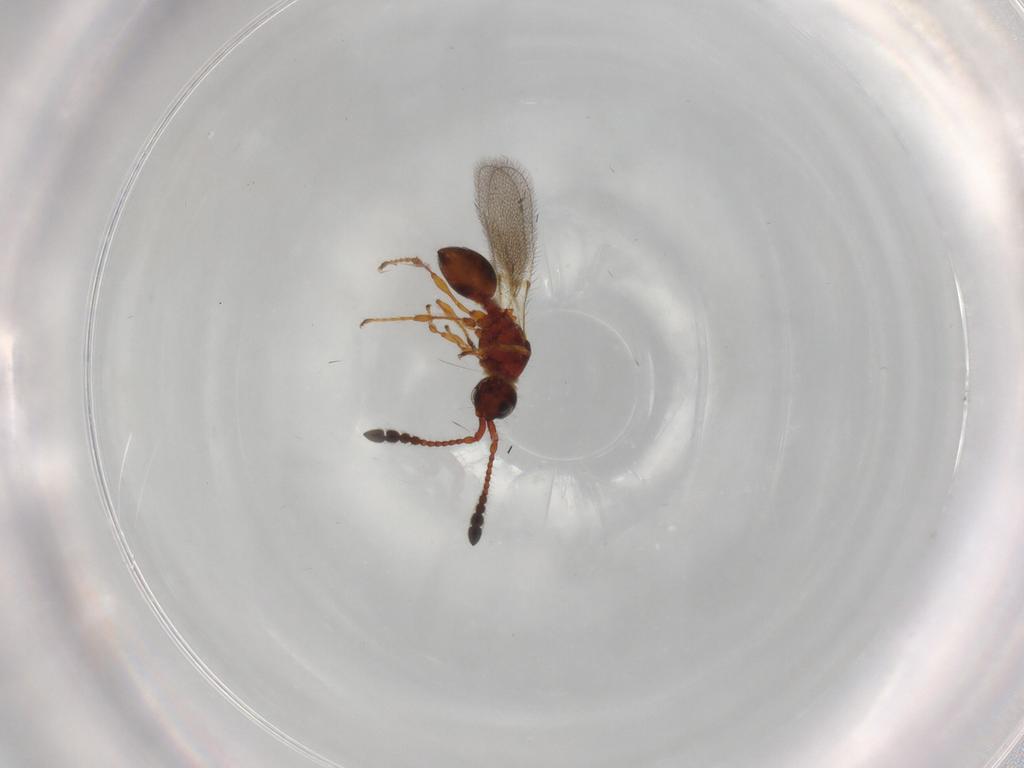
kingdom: Animalia
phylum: Arthropoda
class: Insecta
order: Hymenoptera
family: Diapriidae
